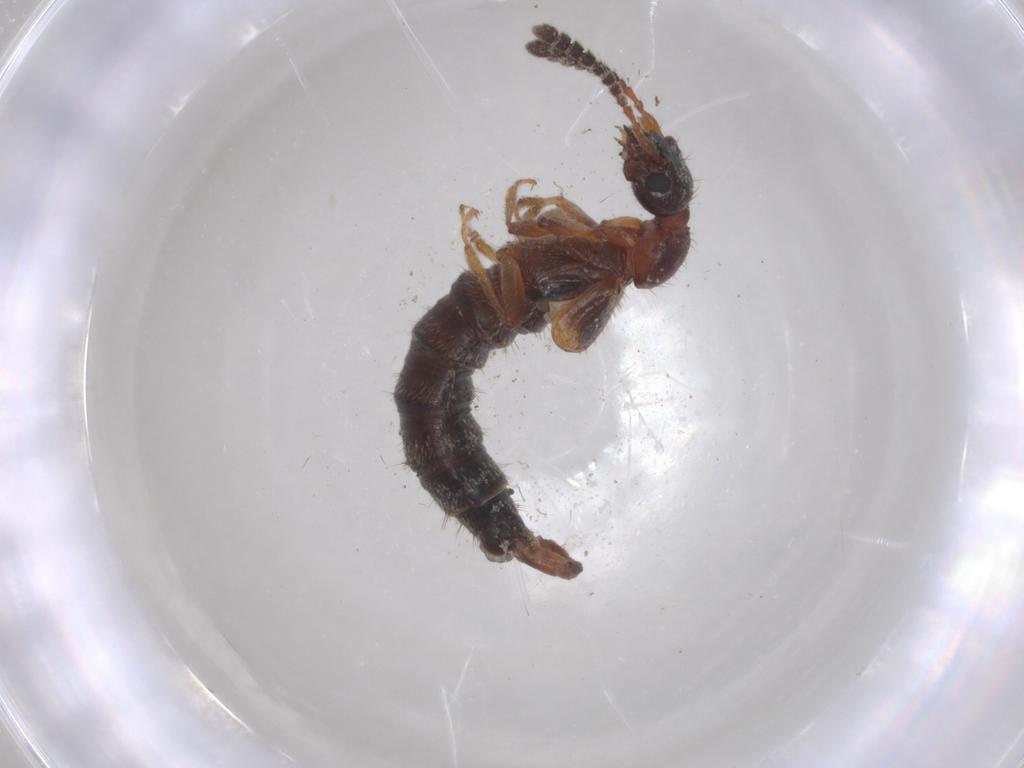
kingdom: Animalia
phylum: Arthropoda
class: Insecta
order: Coleoptera
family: Staphylinidae
